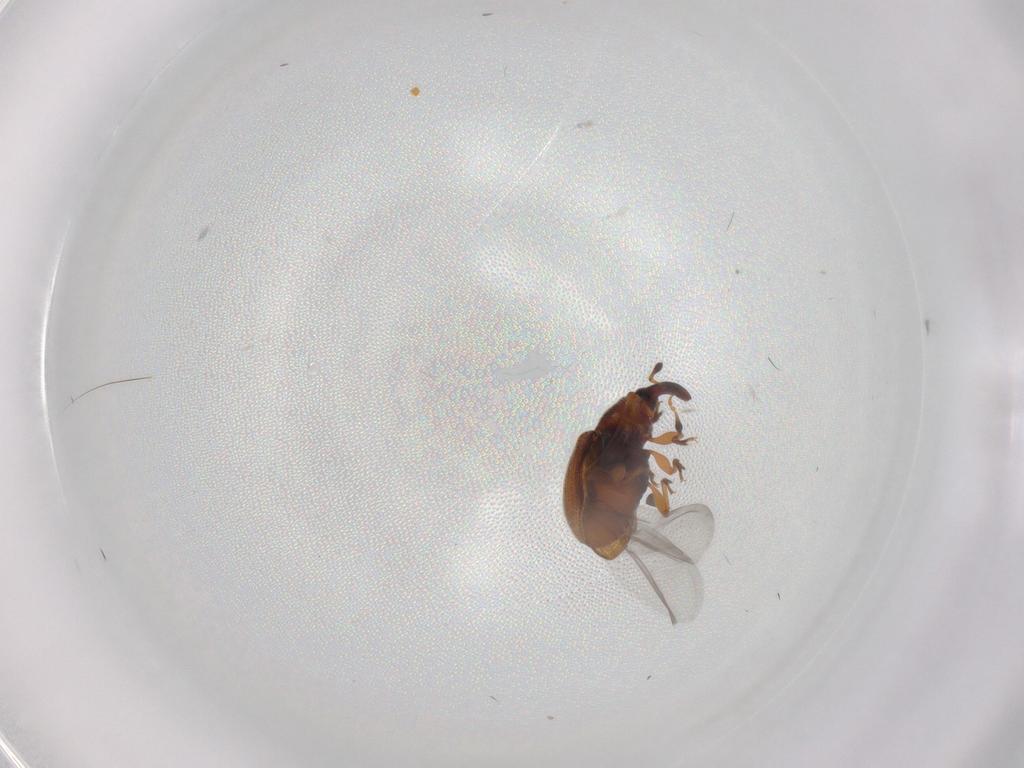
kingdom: Animalia
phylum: Arthropoda
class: Insecta
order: Coleoptera
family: Curculionidae
